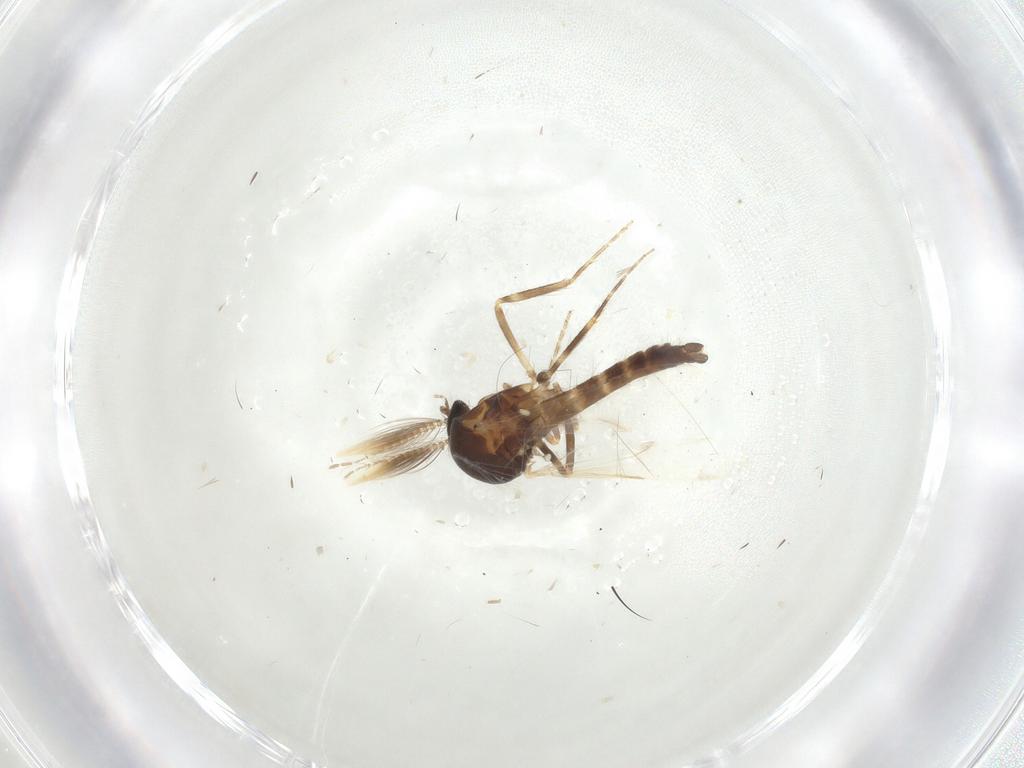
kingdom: Animalia
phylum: Arthropoda
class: Insecta
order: Diptera
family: Ceratopogonidae
